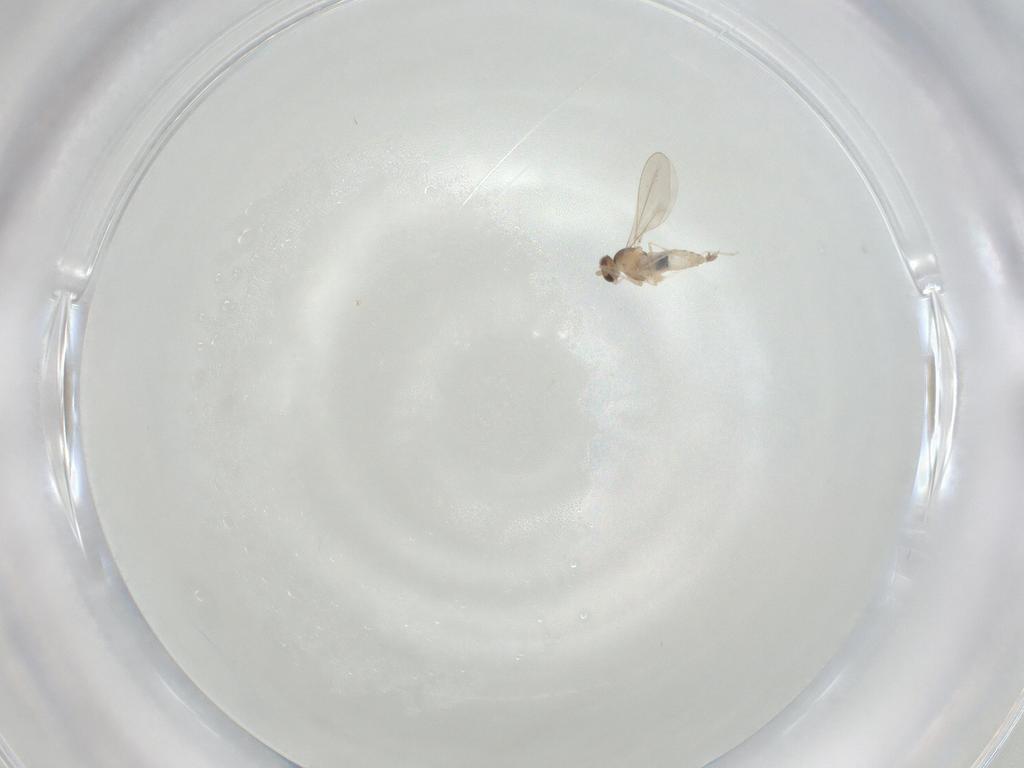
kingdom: Animalia
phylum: Arthropoda
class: Insecta
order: Diptera
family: Cecidomyiidae
